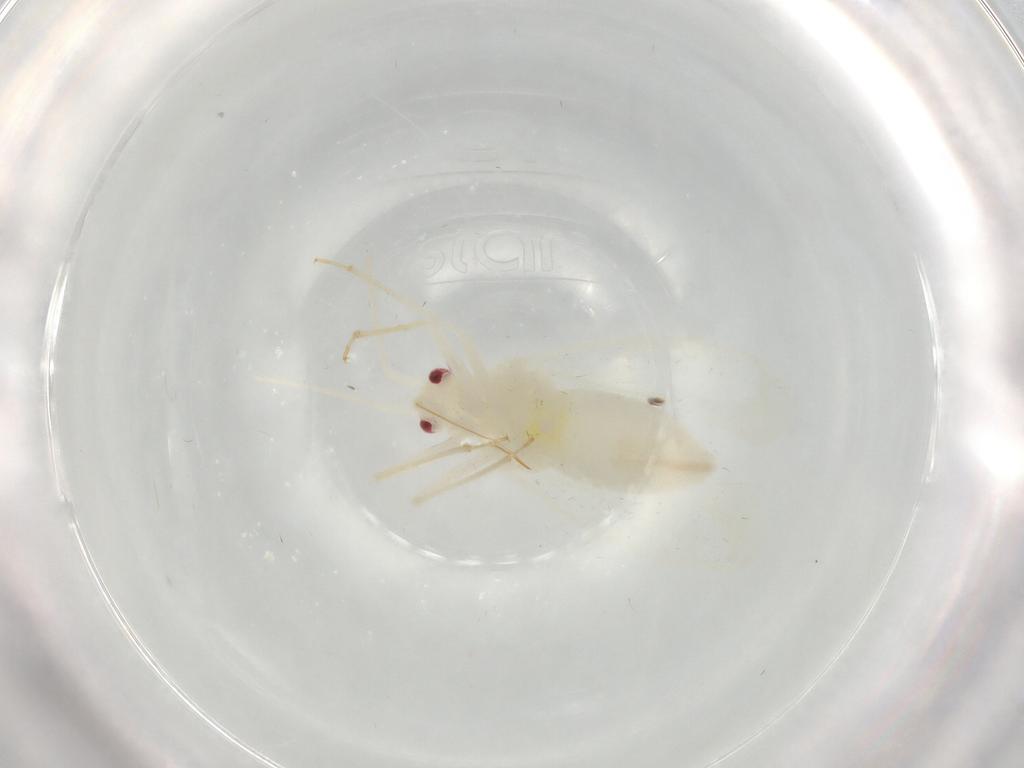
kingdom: Animalia
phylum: Arthropoda
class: Insecta
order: Hemiptera
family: Miridae
